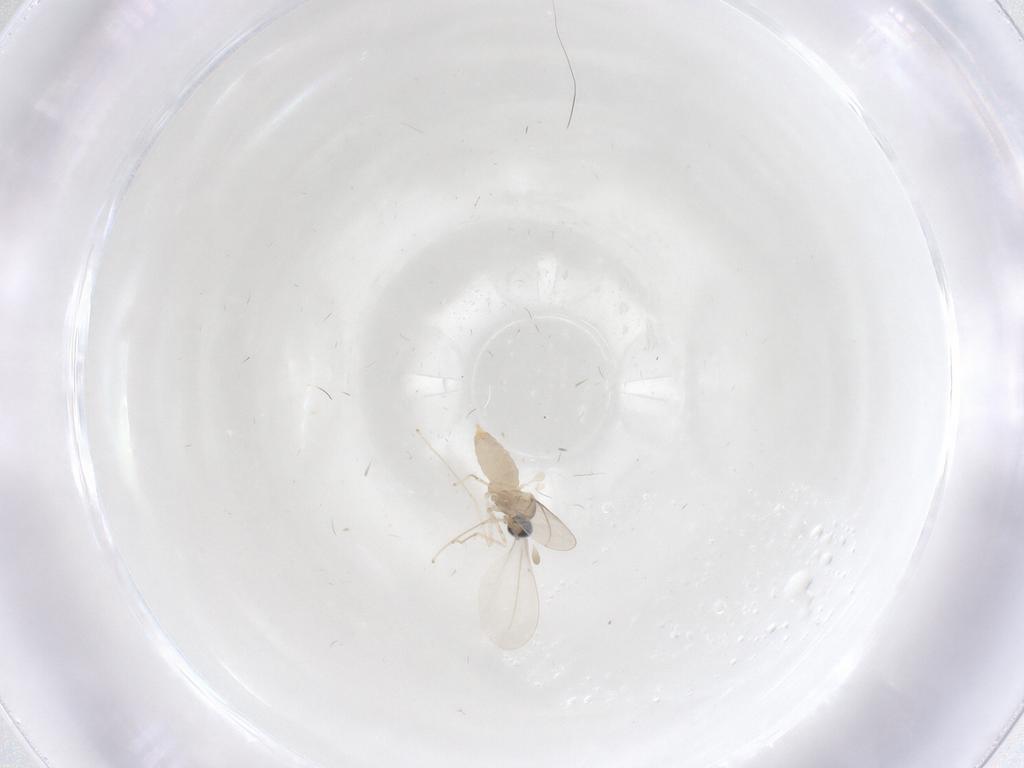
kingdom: Animalia
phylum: Arthropoda
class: Insecta
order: Diptera
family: Cecidomyiidae
